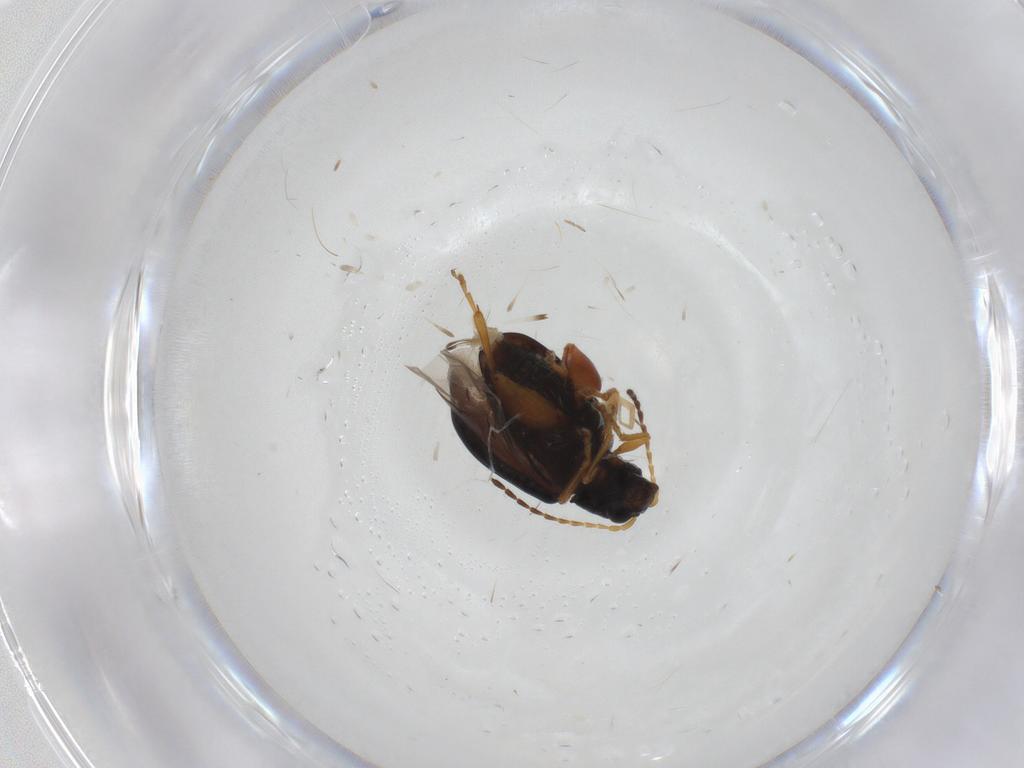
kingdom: Animalia
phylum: Arthropoda
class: Insecta
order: Coleoptera
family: Chrysomelidae
